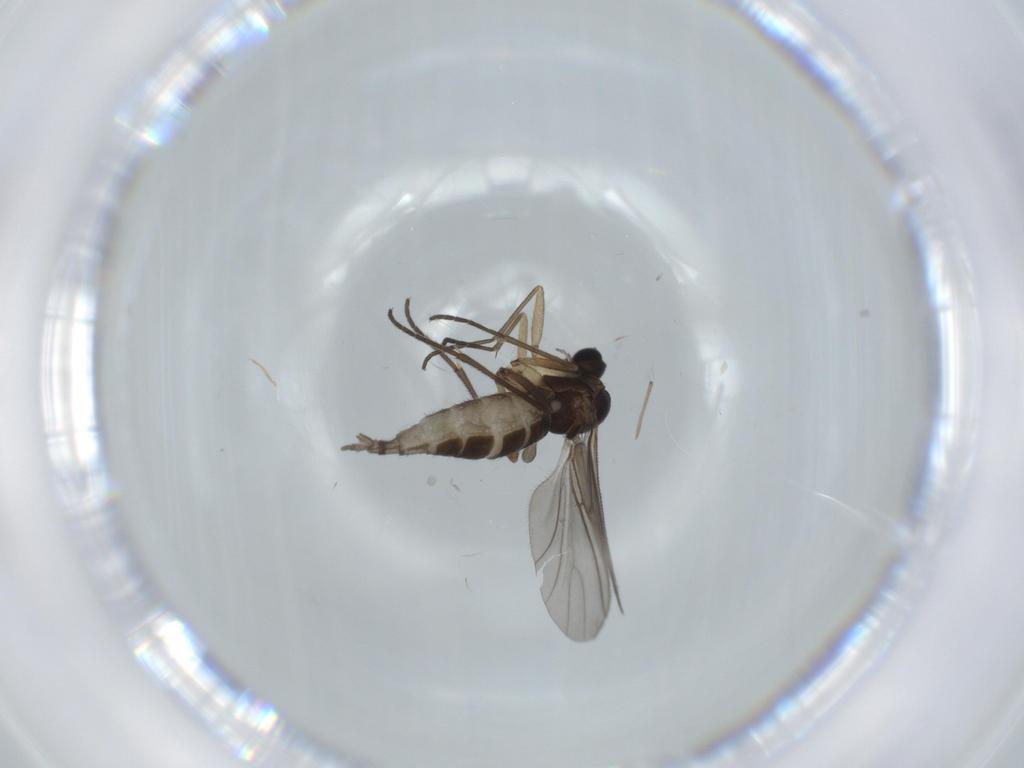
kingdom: Animalia
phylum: Arthropoda
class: Insecta
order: Diptera
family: Sciaridae
